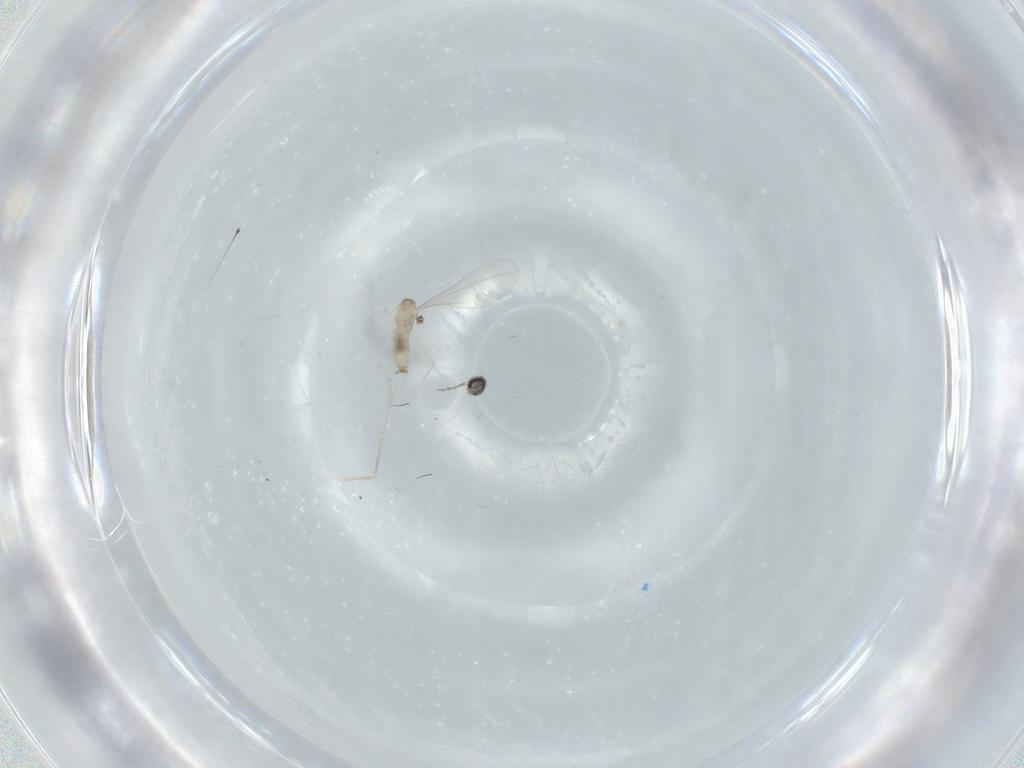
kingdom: Animalia
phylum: Arthropoda
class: Insecta
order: Diptera
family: Cecidomyiidae
